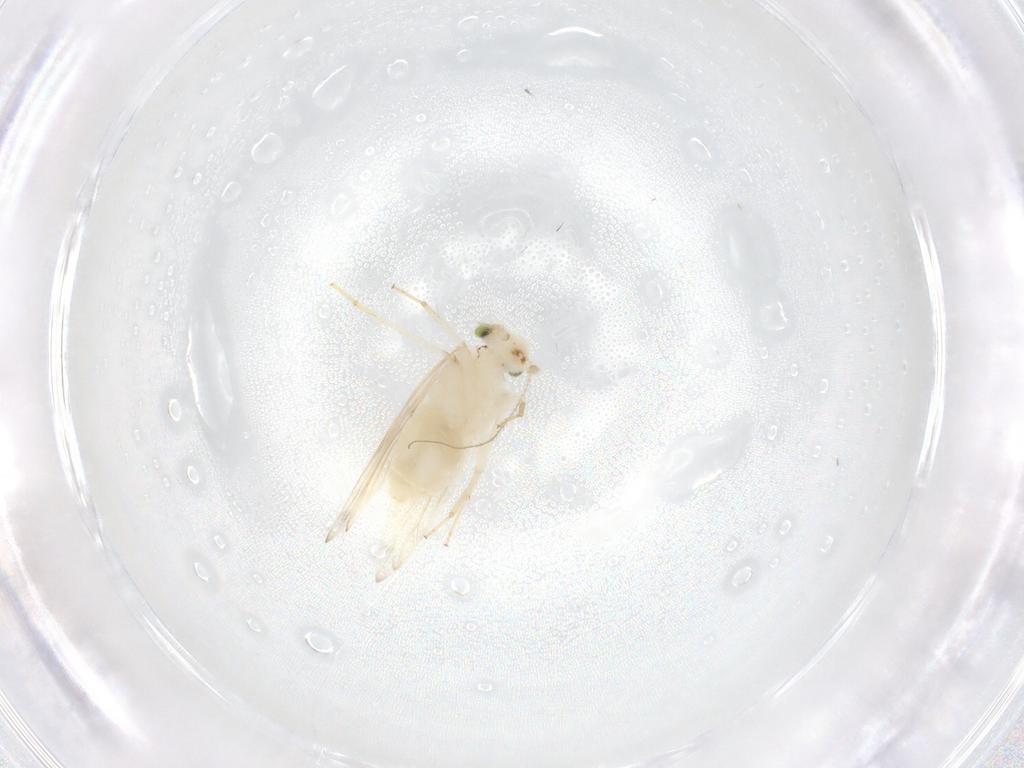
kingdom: Animalia
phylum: Arthropoda
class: Insecta
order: Psocodea
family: Lepidopsocidae
